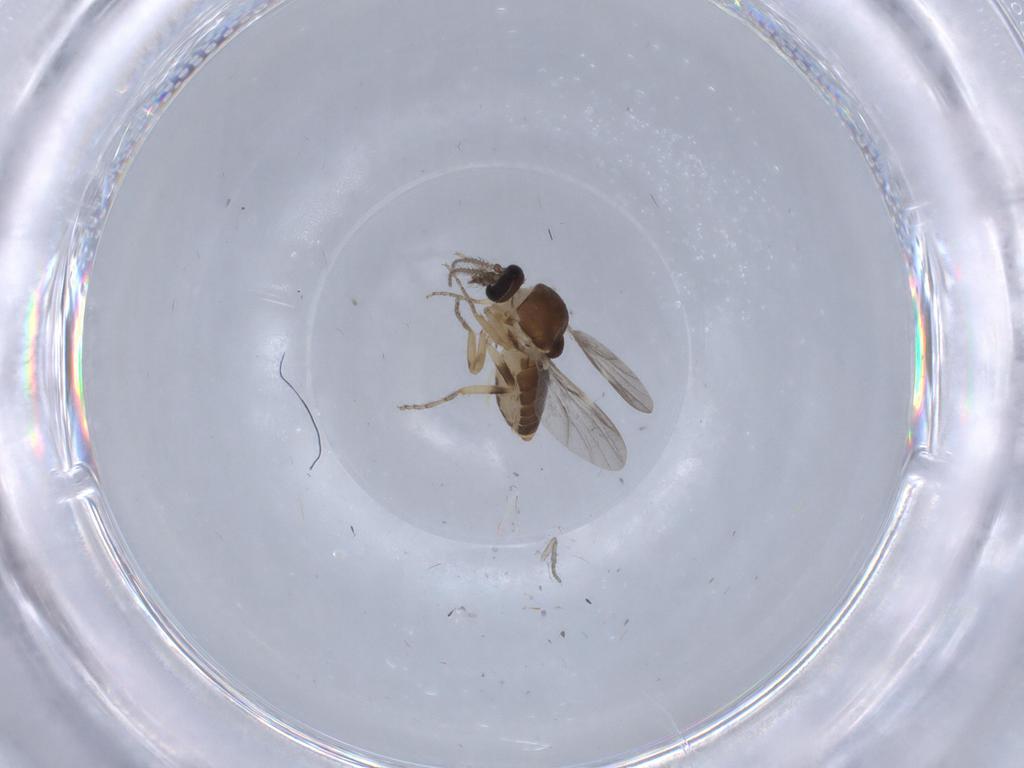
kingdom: Animalia
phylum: Arthropoda
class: Insecta
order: Diptera
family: Ceratopogonidae
